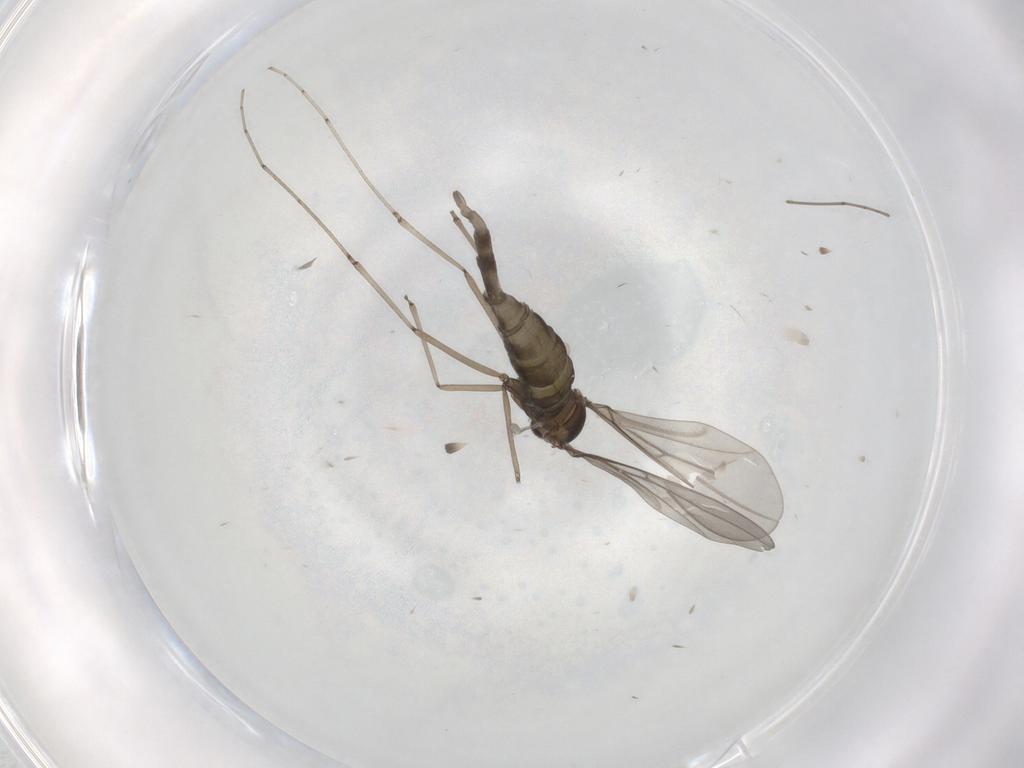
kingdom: Animalia
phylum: Arthropoda
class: Insecta
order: Diptera
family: Cecidomyiidae
